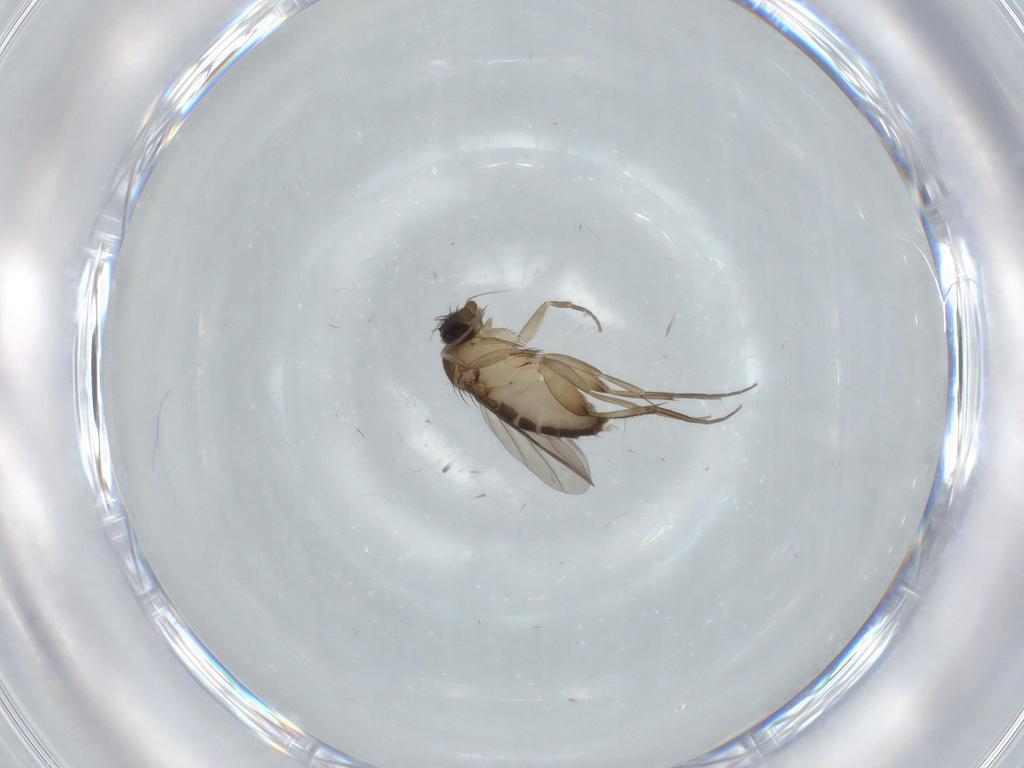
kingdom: Animalia
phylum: Arthropoda
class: Insecta
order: Diptera
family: Phoridae
